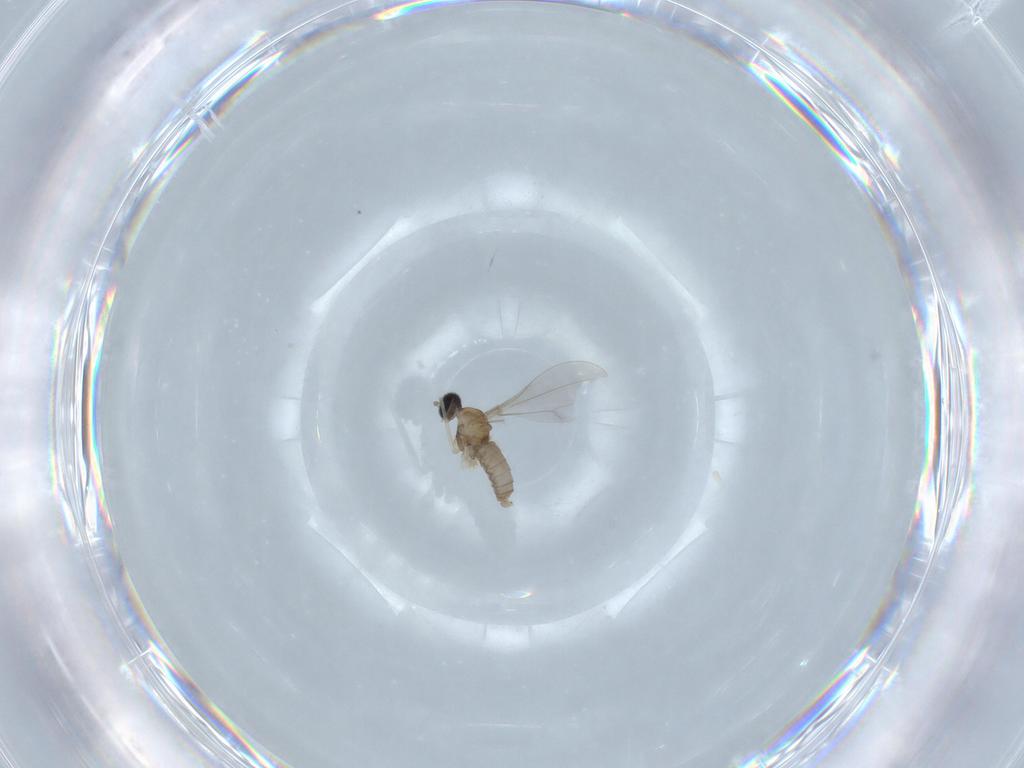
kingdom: Animalia
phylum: Arthropoda
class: Insecta
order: Diptera
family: Cecidomyiidae
